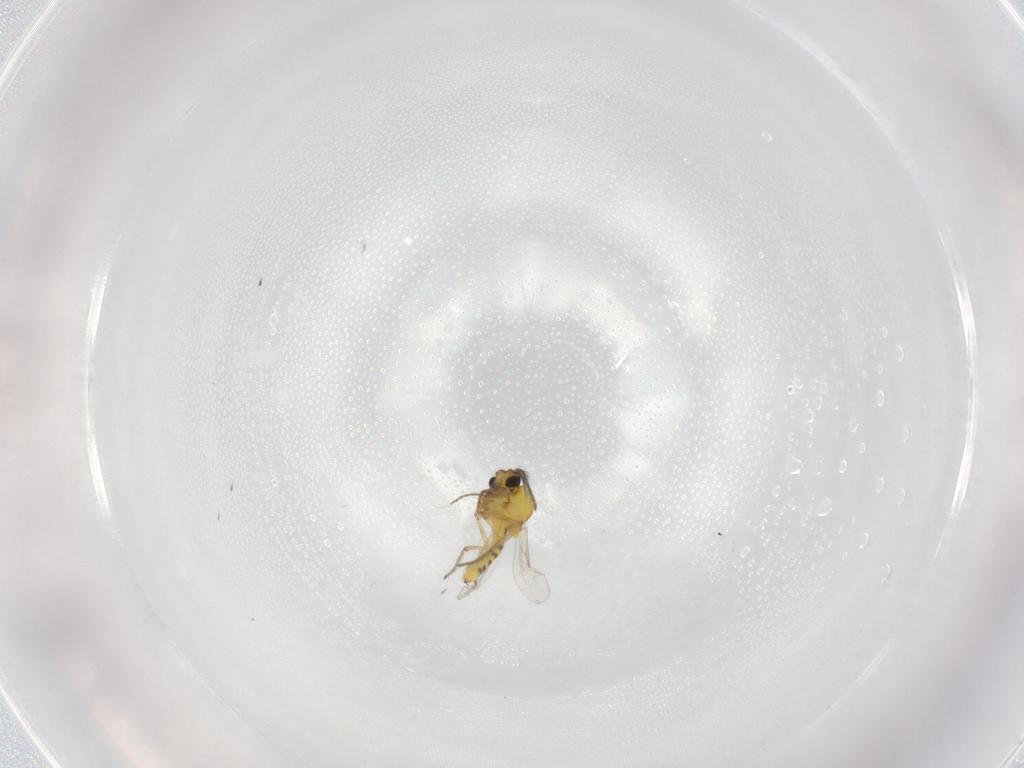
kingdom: Animalia
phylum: Arthropoda
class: Insecta
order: Diptera
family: Ceratopogonidae
